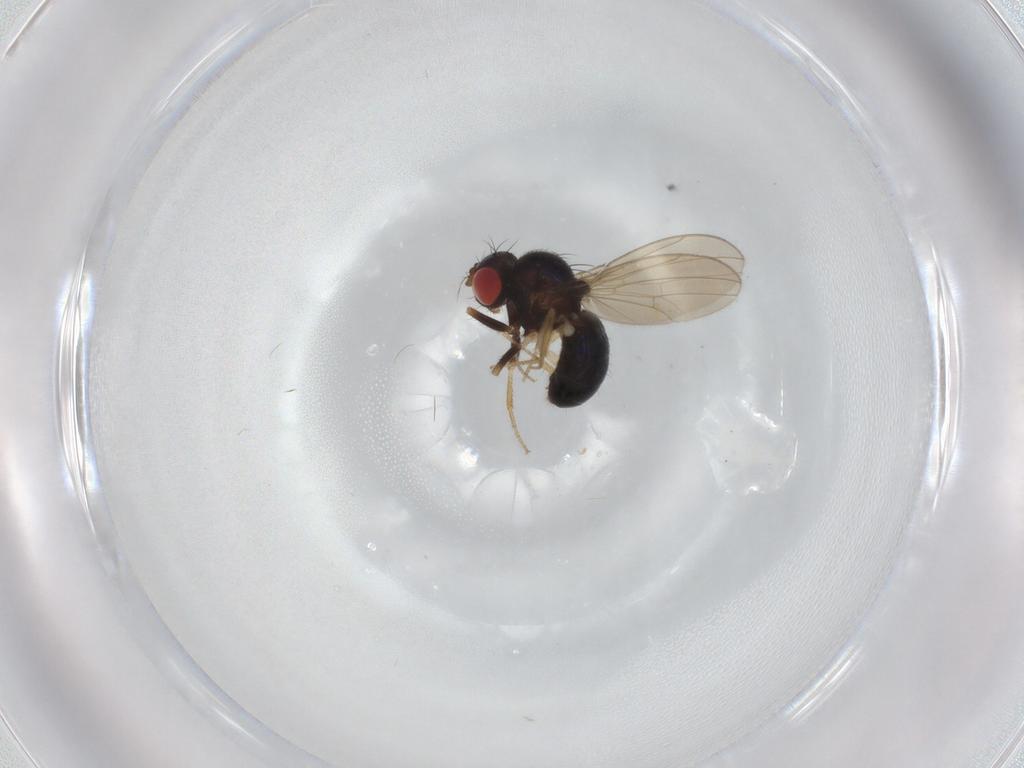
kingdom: Animalia
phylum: Arthropoda
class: Insecta
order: Diptera
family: Drosophilidae
